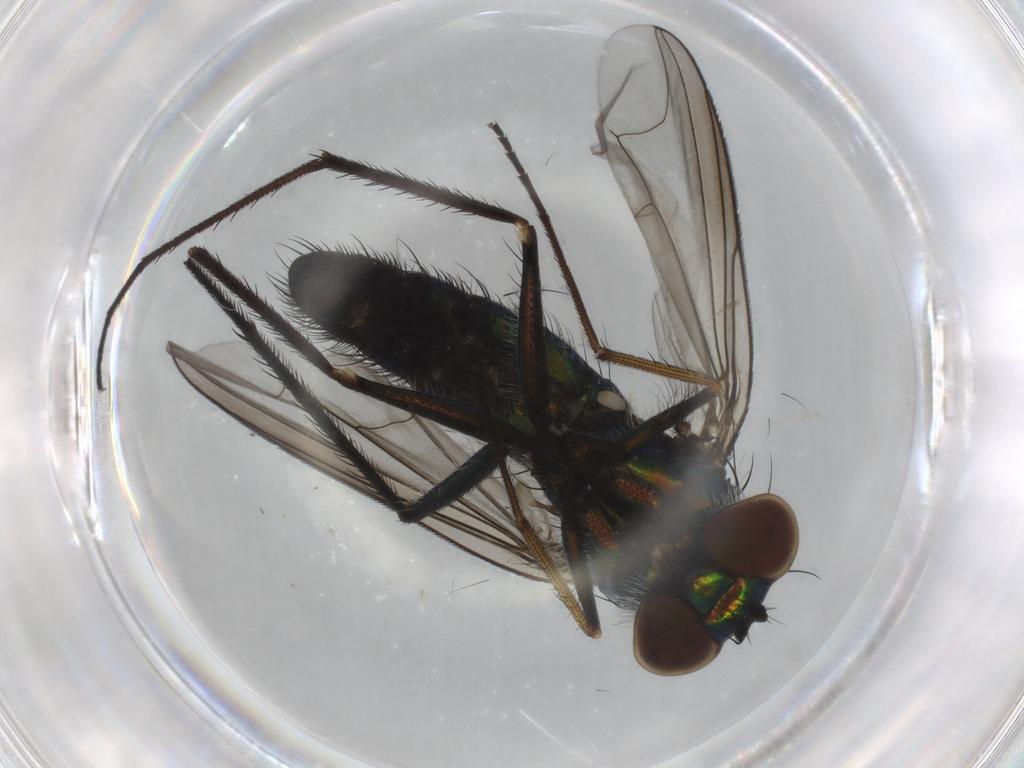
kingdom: Animalia
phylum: Arthropoda
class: Insecta
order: Diptera
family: Cecidomyiidae
